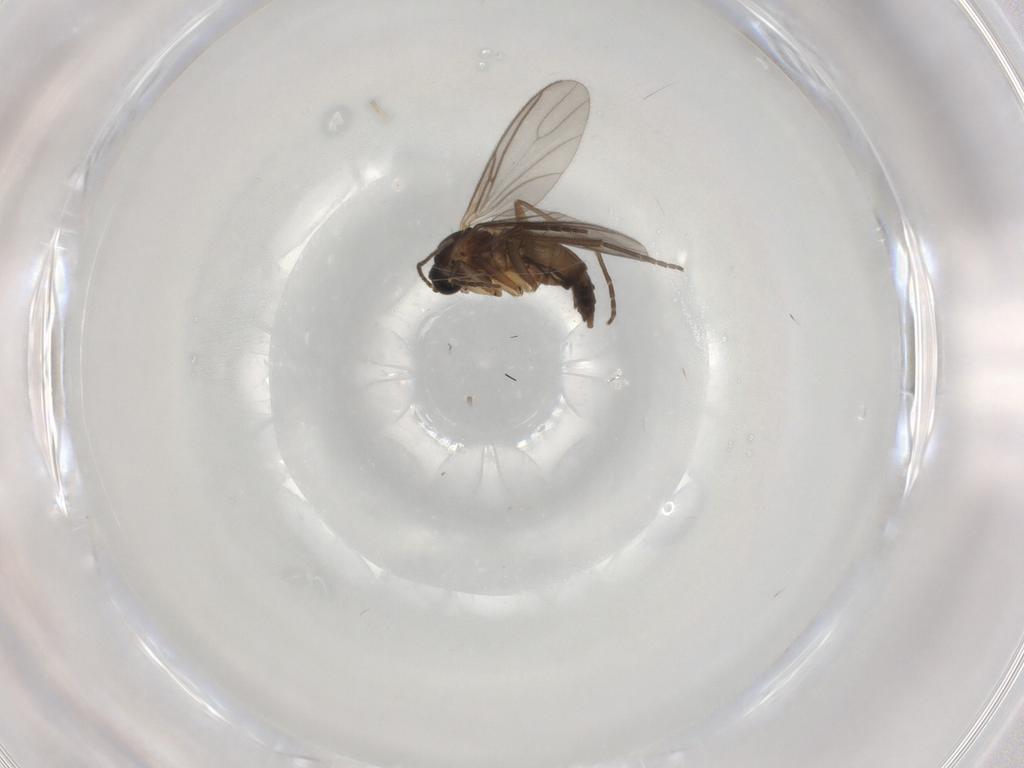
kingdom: Animalia
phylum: Arthropoda
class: Insecta
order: Diptera
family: Sciaridae
